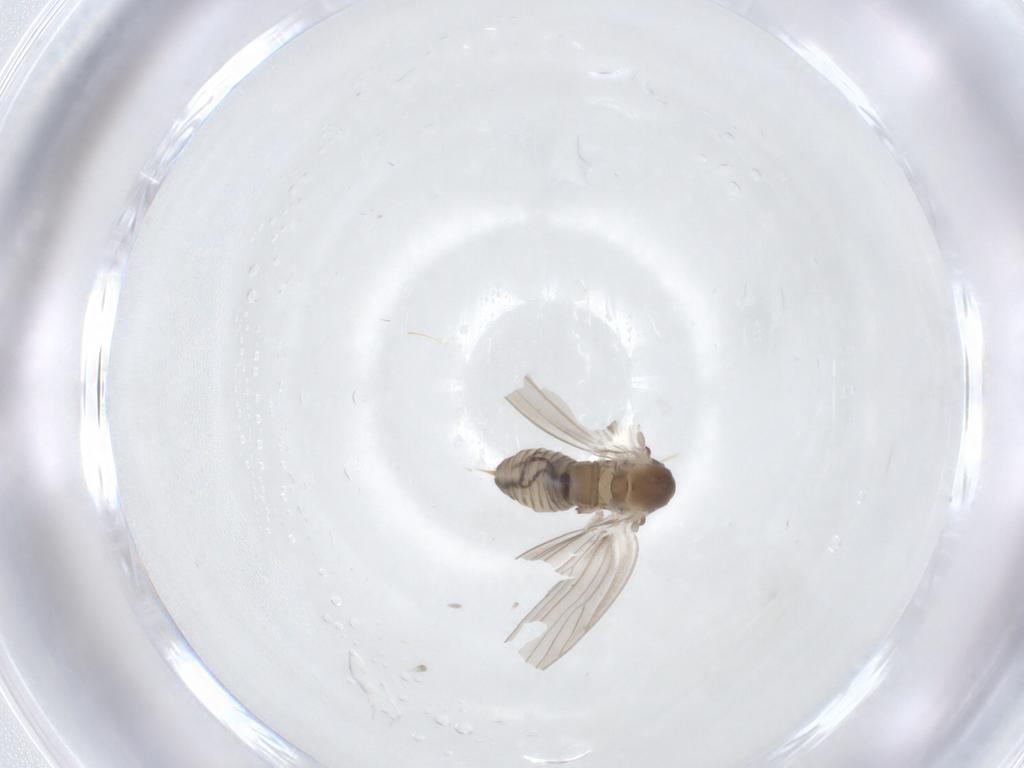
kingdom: Animalia
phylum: Arthropoda
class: Insecta
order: Diptera
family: Psychodidae
